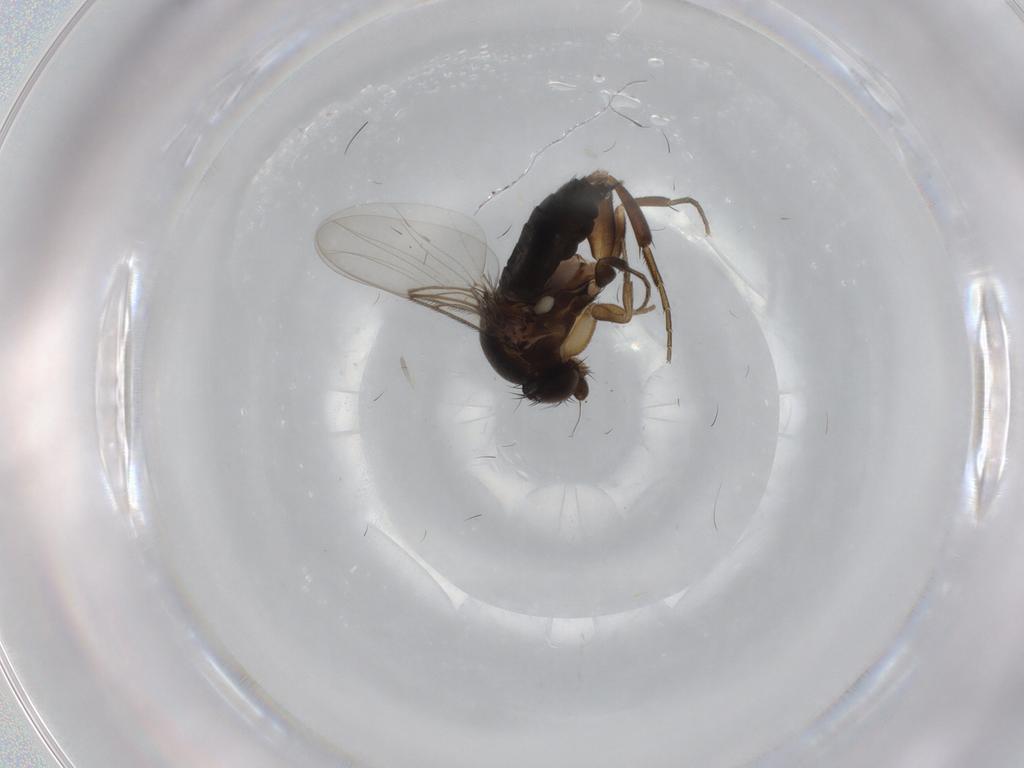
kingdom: Animalia
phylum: Arthropoda
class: Insecta
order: Diptera
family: Phoridae
